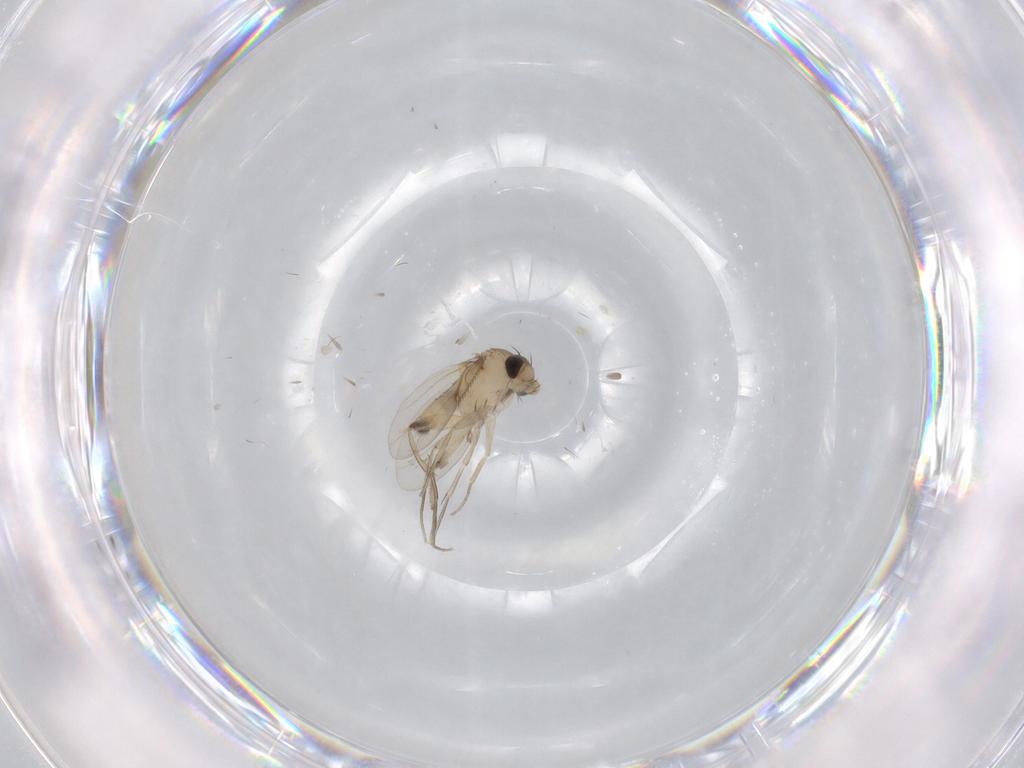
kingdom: Animalia
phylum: Arthropoda
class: Insecta
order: Diptera
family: Phoridae
